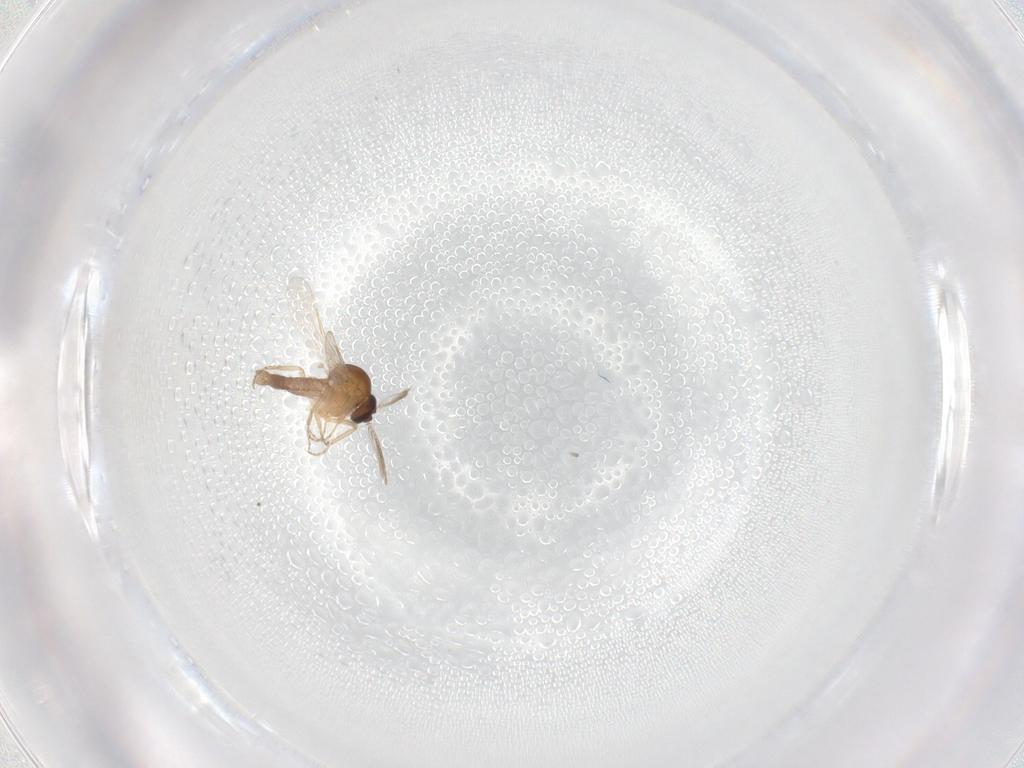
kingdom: Animalia
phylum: Arthropoda
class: Insecta
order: Diptera
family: Ceratopogonidae
